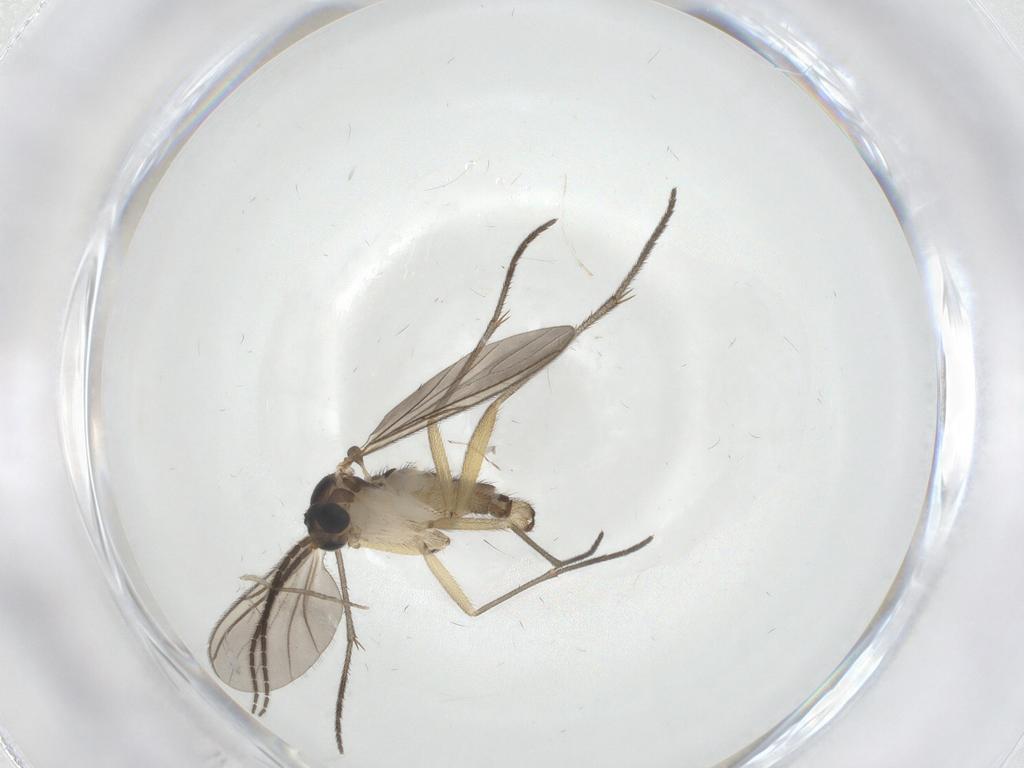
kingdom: Animalia
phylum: Arthropoda
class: Insecta
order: Diptera
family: Sciaridae
